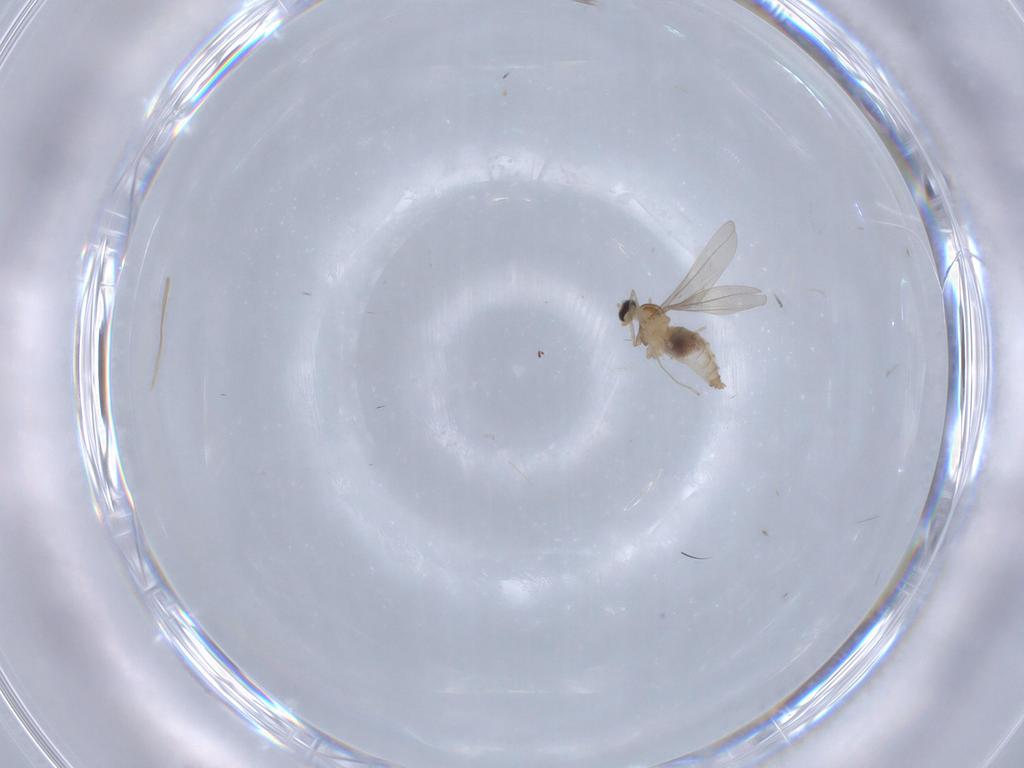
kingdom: Animalia
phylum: Arthropoda
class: Insecta
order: Diptera
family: Cecidomyiidae
